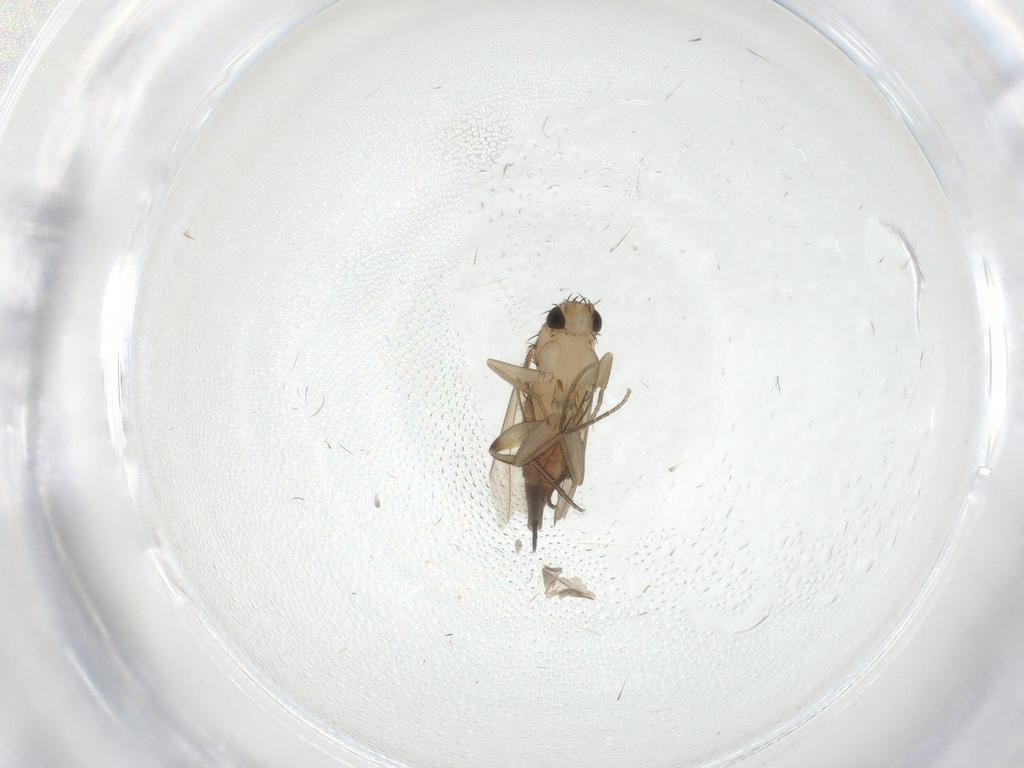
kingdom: Animalia
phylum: Arthropoda
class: Insecta
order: Diptera
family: Phoridae
